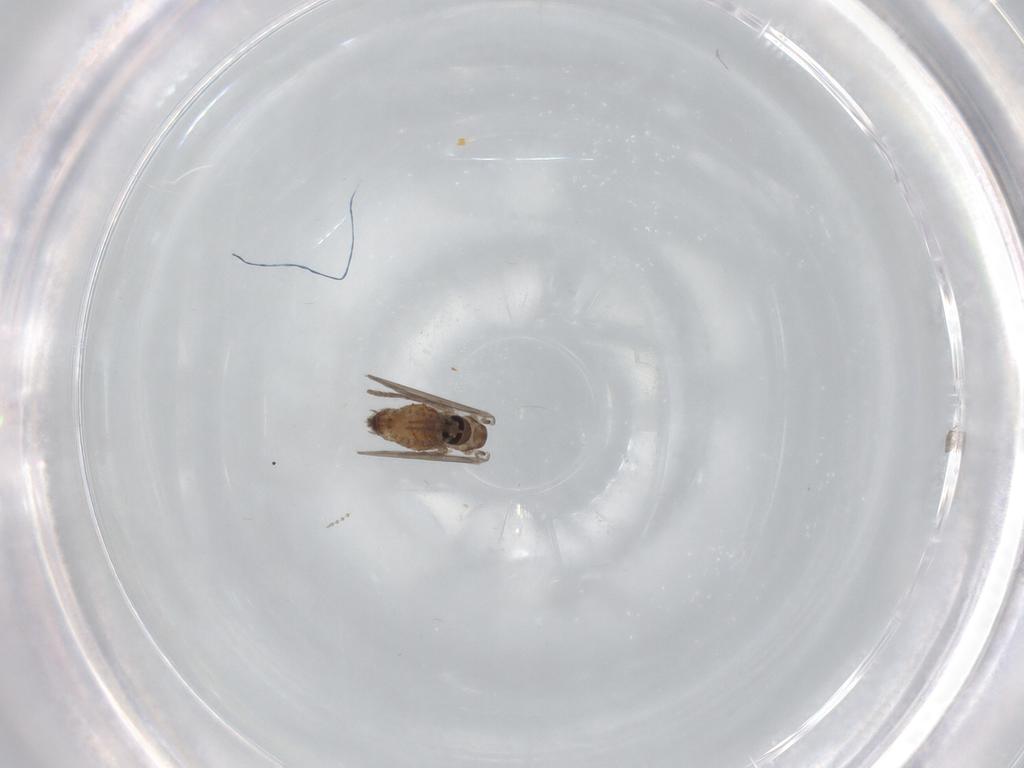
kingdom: Animalia
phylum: Arthropoda
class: Insecta
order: Diptera
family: Psychodidae
